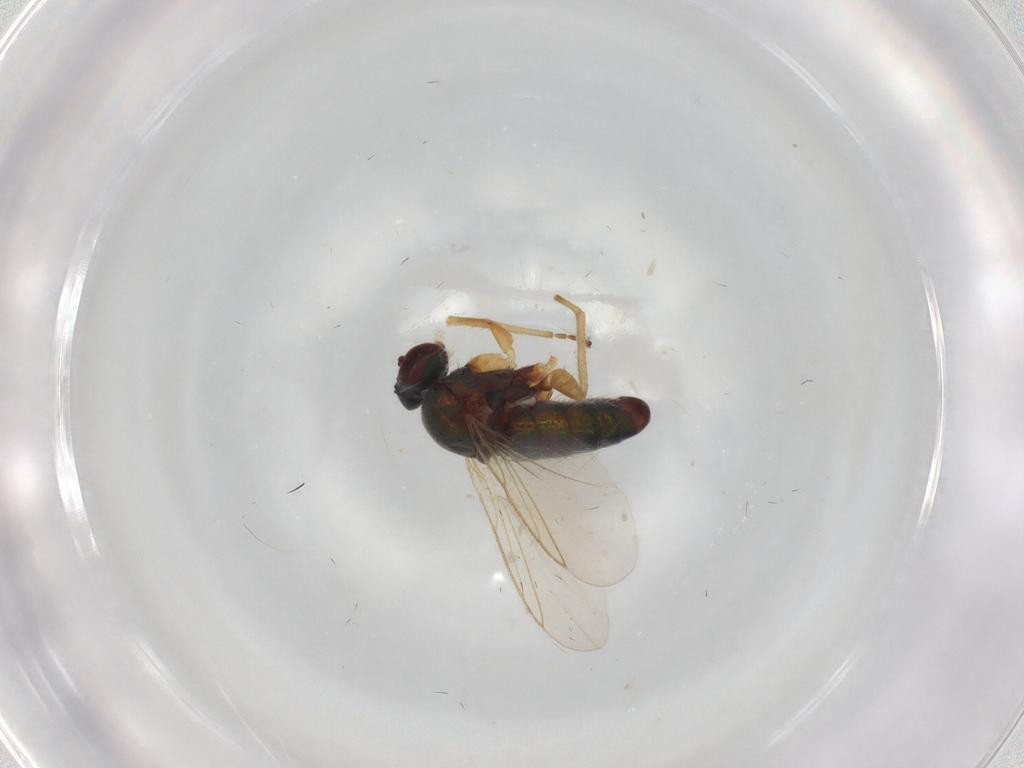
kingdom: Animalia
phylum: Arthropoda
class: Insecta
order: Diptera
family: Dolichopodidae
